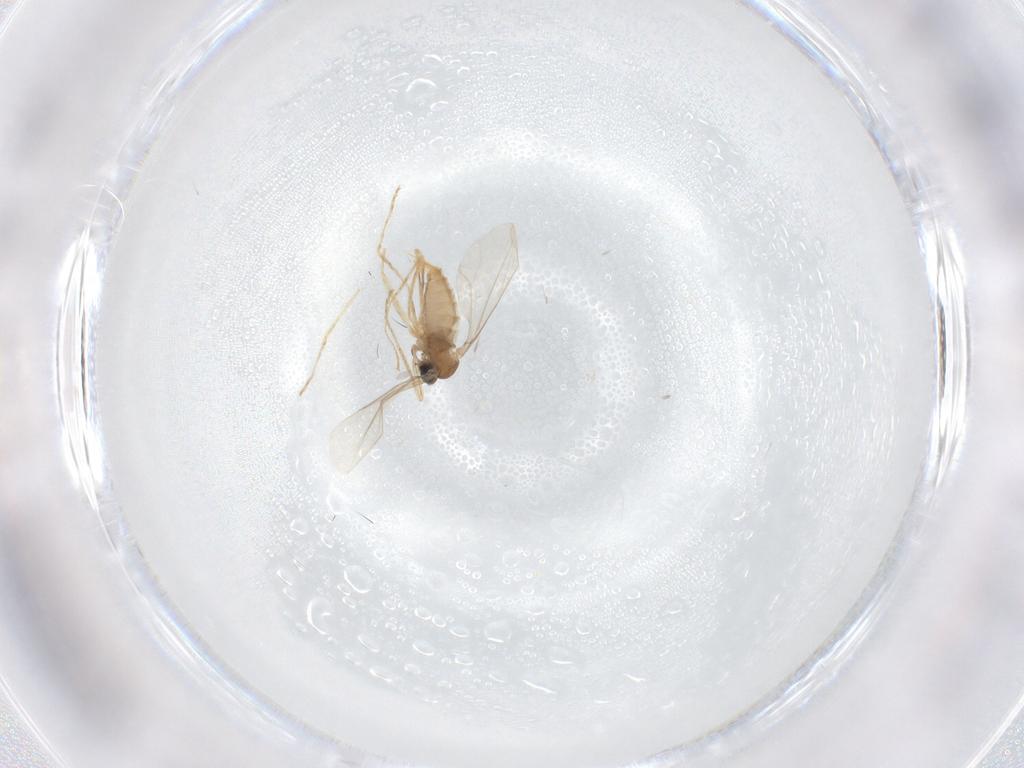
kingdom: Animalia
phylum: Arthropoda
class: Insecta
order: Diptera
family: Cecidomyiidae
